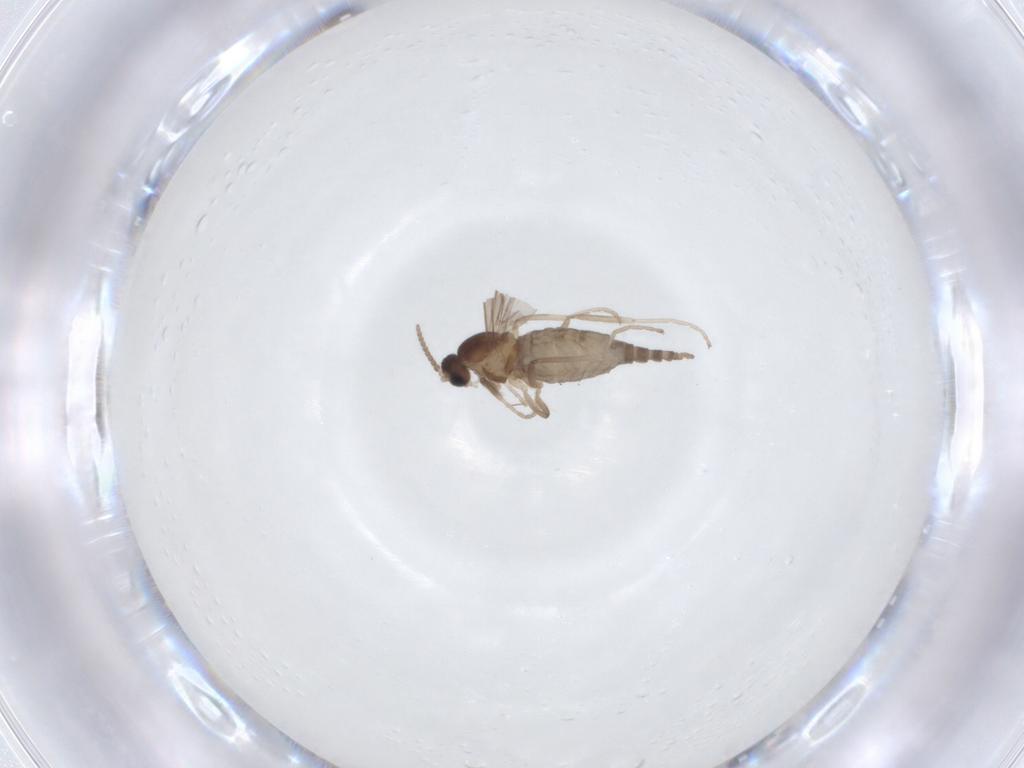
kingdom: Animalia
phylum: Arthropoda
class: Insecta
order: Diptera
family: Cecidomyiidae
